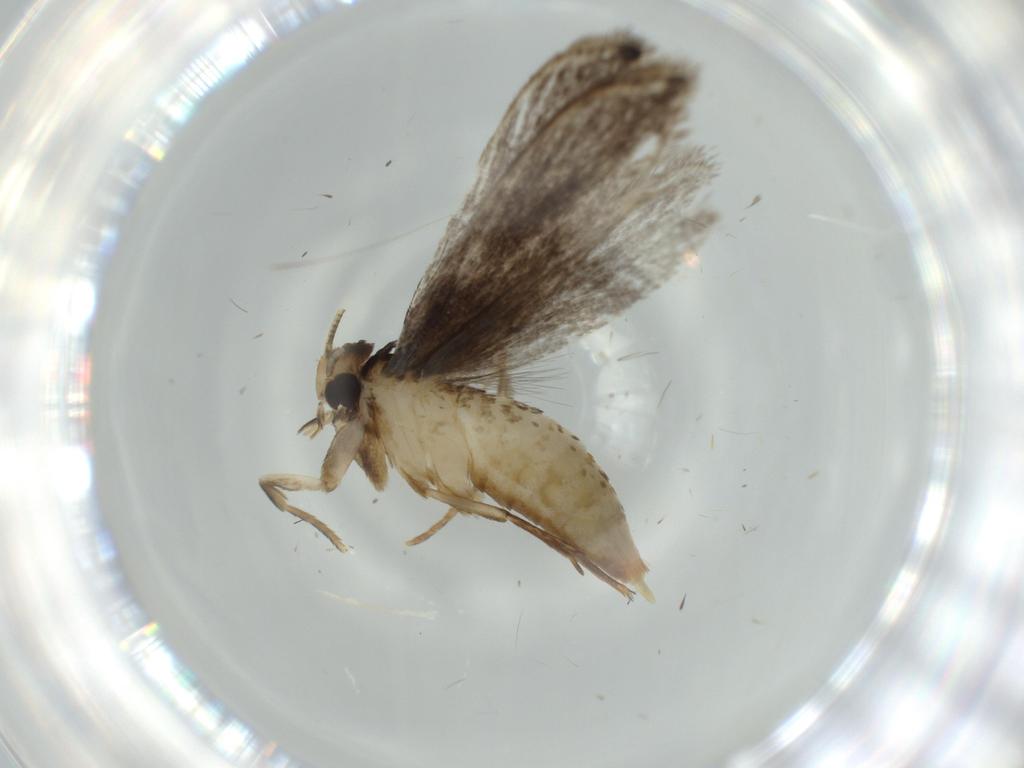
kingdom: Animalia
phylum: Arthropoda
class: Insecta
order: Lepidoptera
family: Tineidae
